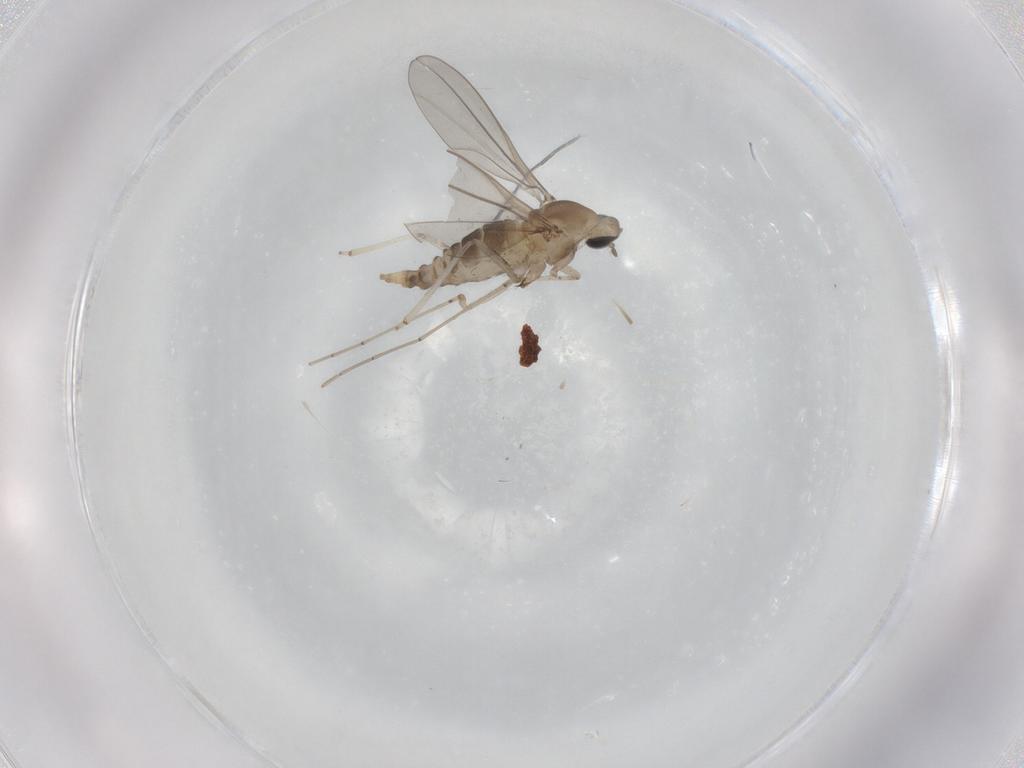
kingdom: Animalia
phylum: Arthropoda
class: Insecta
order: Diptera
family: Cecidomyiidae
